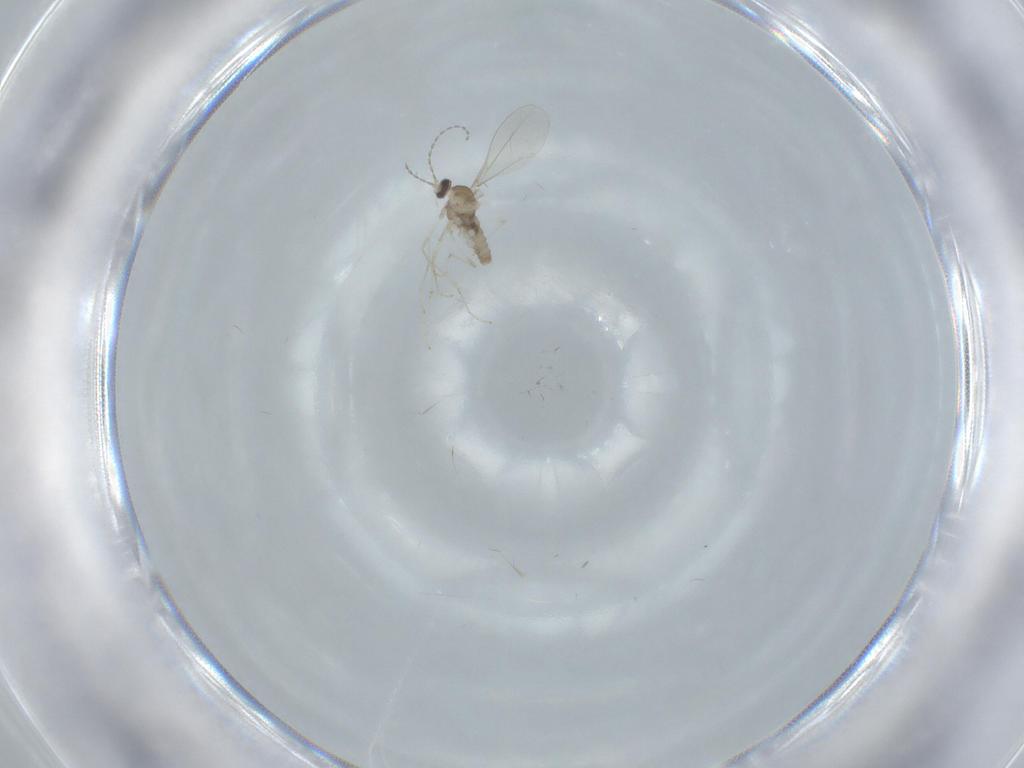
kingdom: Animalia
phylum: Arthropoda
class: Insecta
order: Diptera
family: Cecidomyiidae
